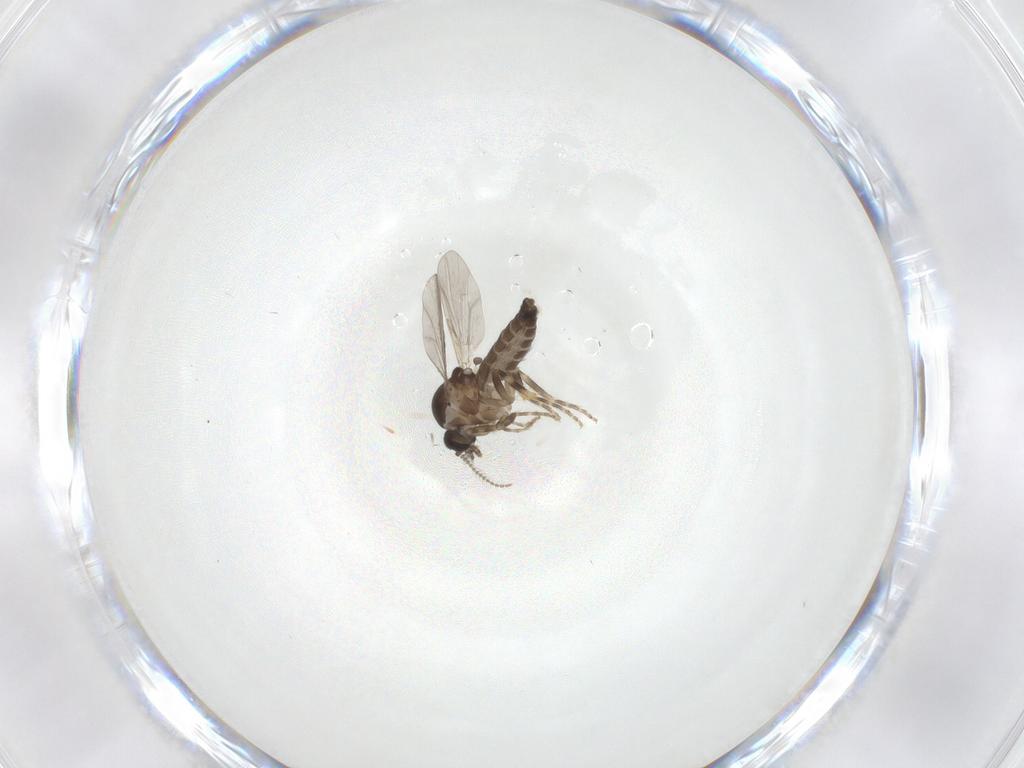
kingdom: Animalia
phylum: Arthropoda
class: Insecta
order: Diptera
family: Ceratopogonidae
